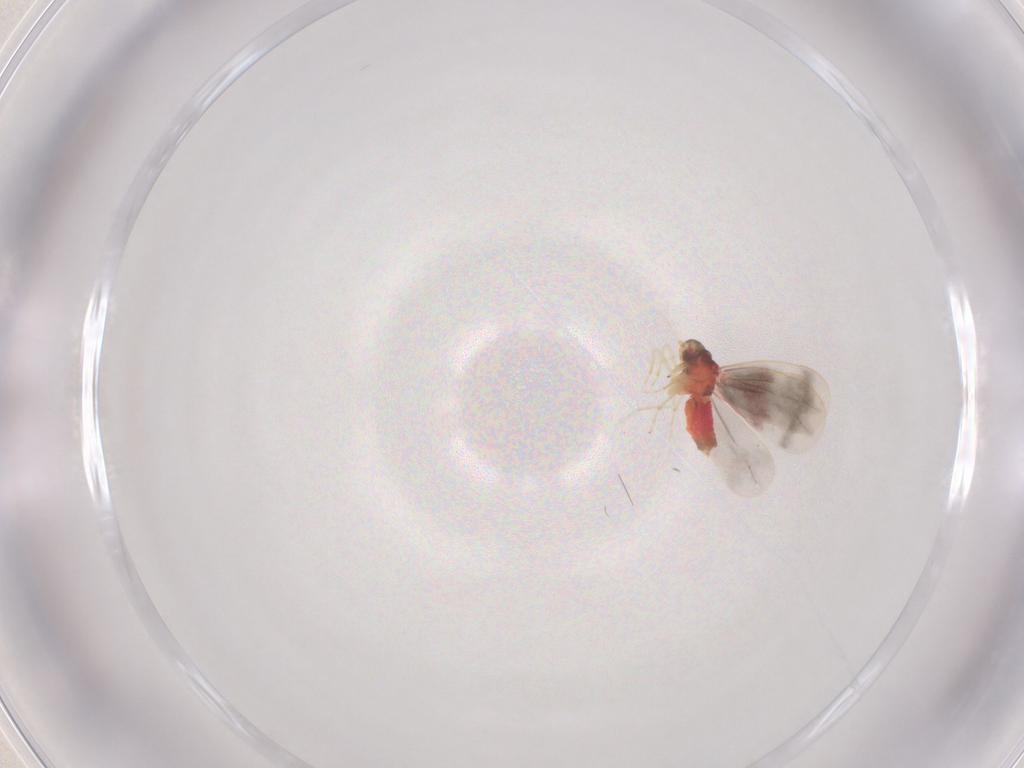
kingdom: Animalia
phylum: Arthropoda
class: Insecta
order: Hemiptera
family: Aleyrodidae
